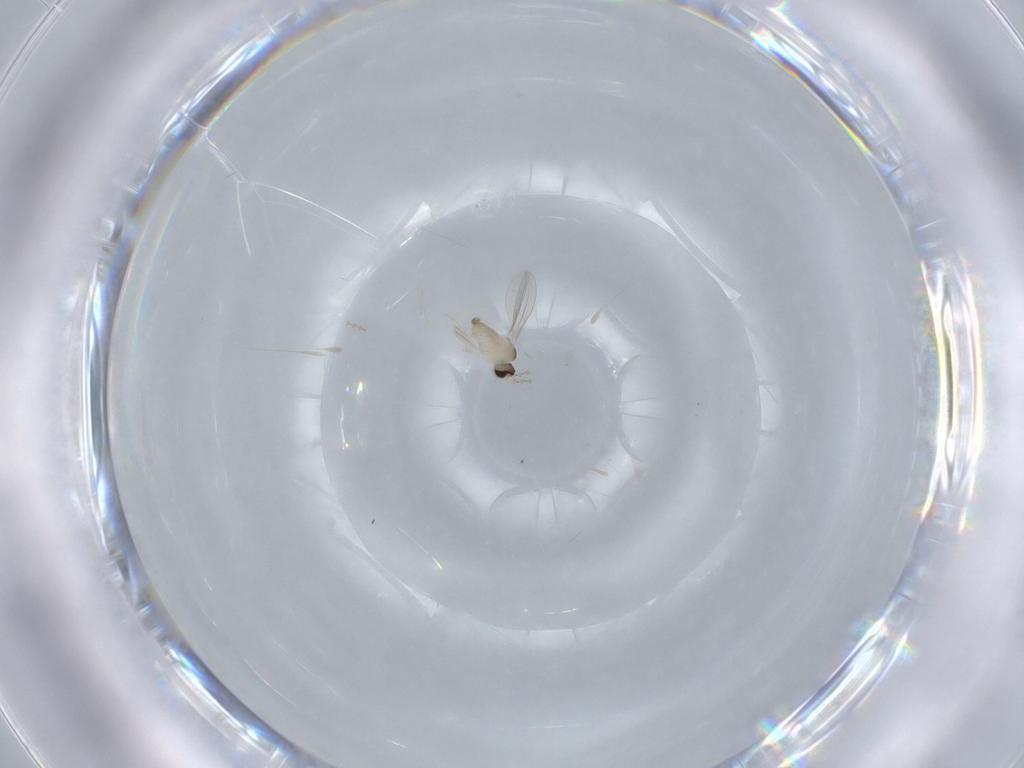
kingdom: Animalia
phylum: Arthropoda
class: Insecta
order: Diptera
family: Cecidomyiidae
